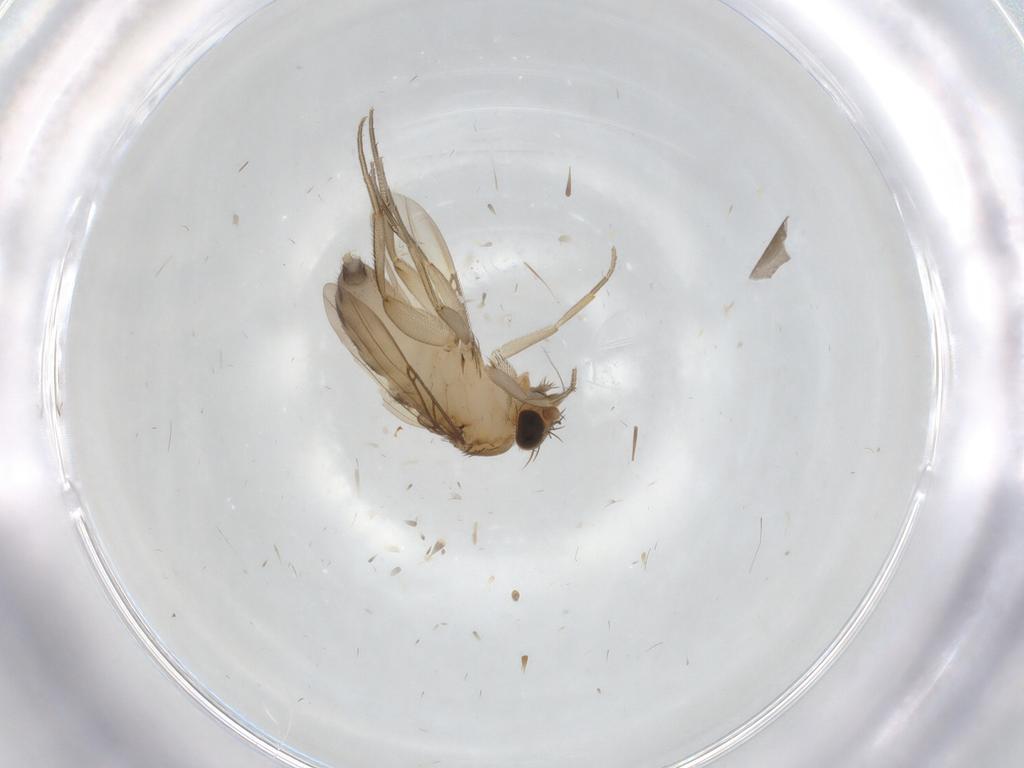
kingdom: Animalia
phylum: Arthropoda
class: Insecta
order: Diptera
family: Phoridae
